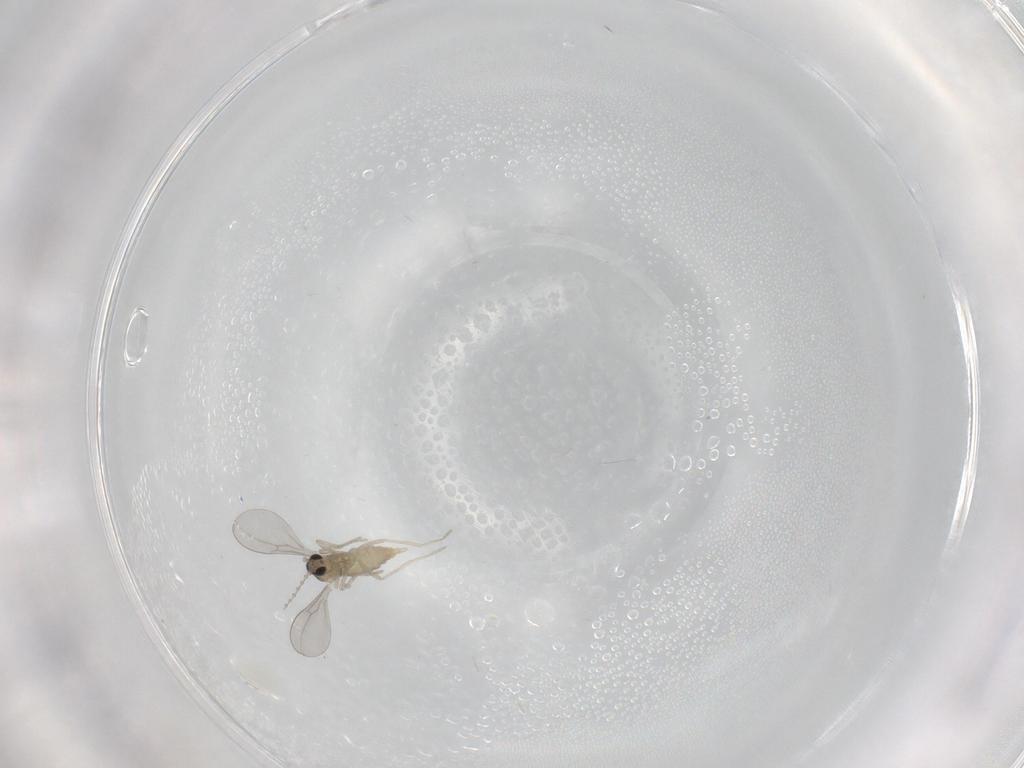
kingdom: Animalia
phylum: Arthropoda
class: Insecta
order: Diptera
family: Cecidomyiidae
